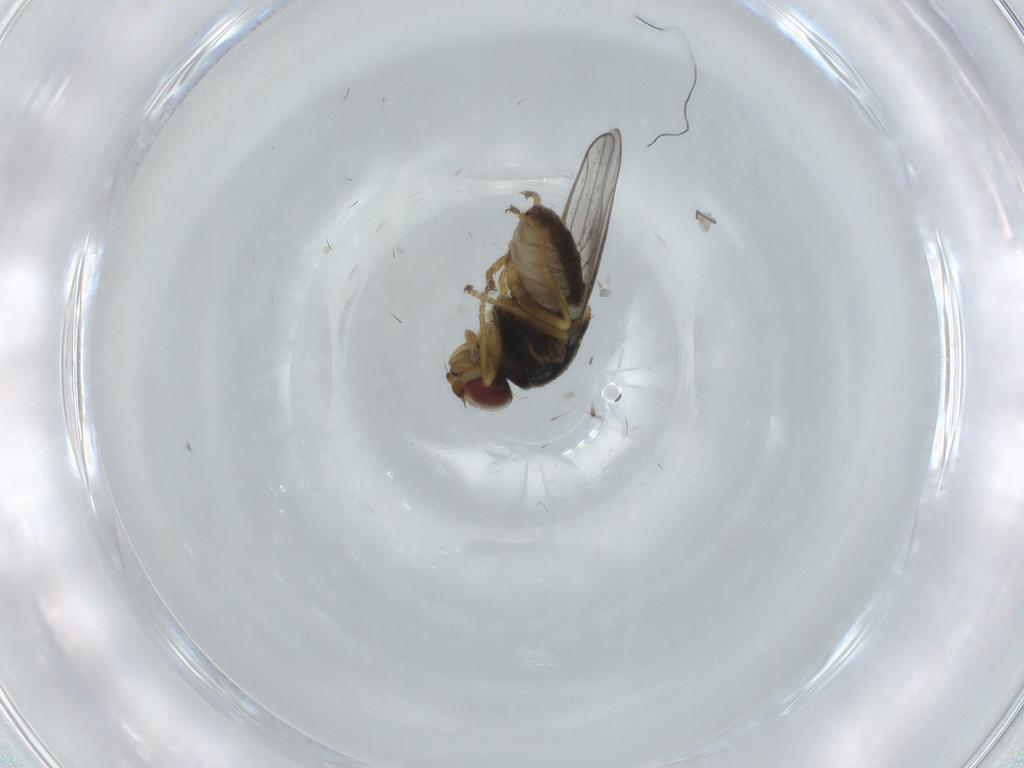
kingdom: Animalia
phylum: Arthropoda
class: Insecta
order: Diptera
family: Chloropidae
